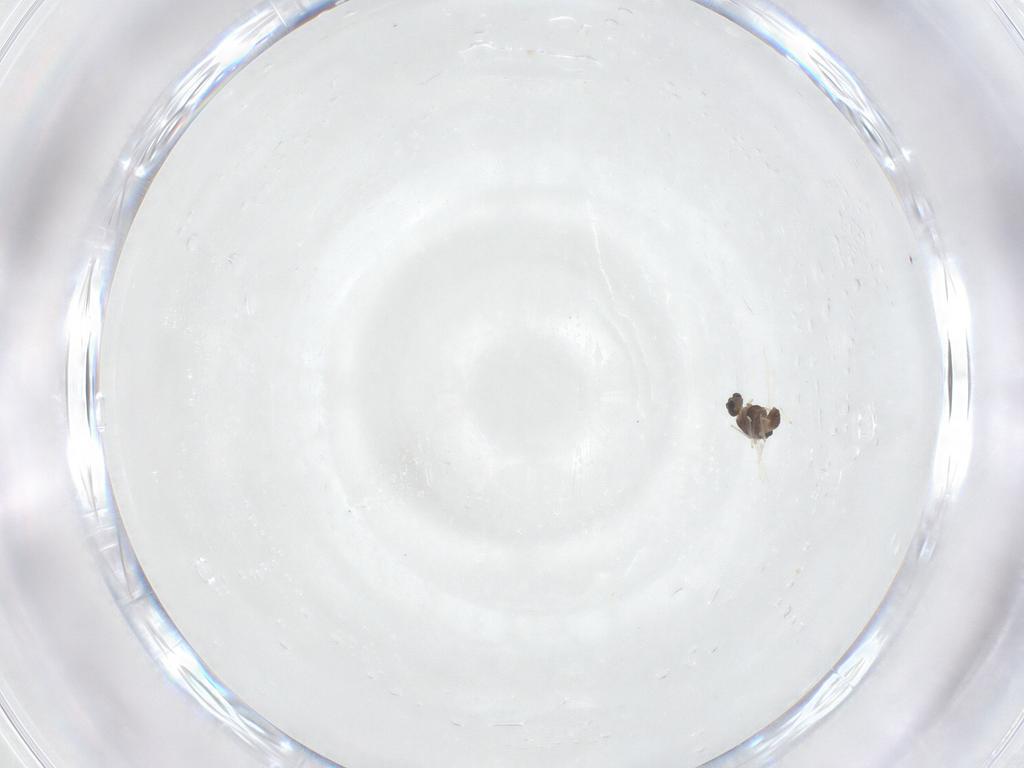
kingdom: Animalia
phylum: Arthropoda
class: Insecta
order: Diptera
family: Chironomidae
